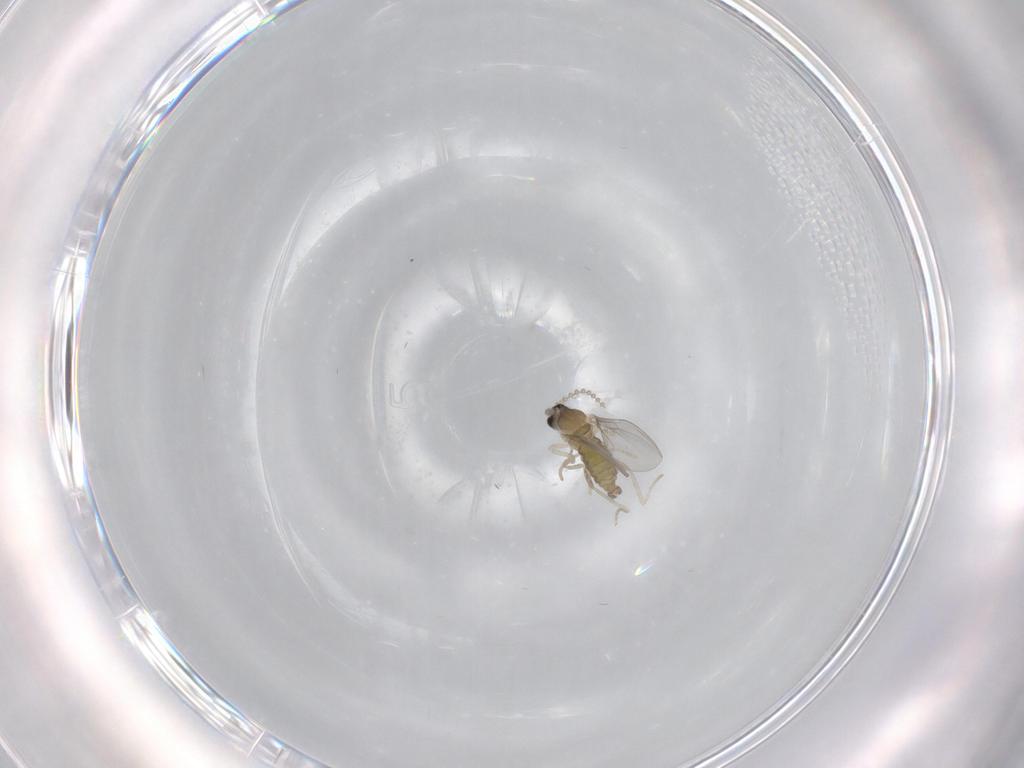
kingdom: Animalia
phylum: Arthropoda
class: Insecta
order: Diptera
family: Cecidomyiidae
